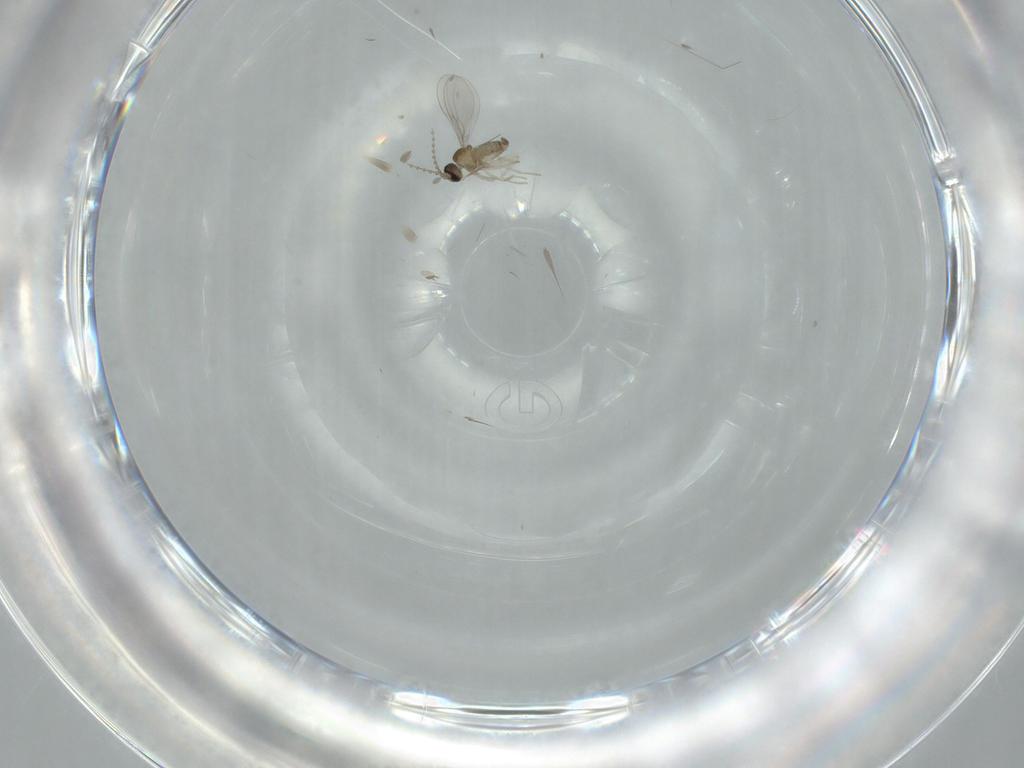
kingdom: Animalia
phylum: Arthropoda
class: Insecta
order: Diptera
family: Cecidomyiidae
